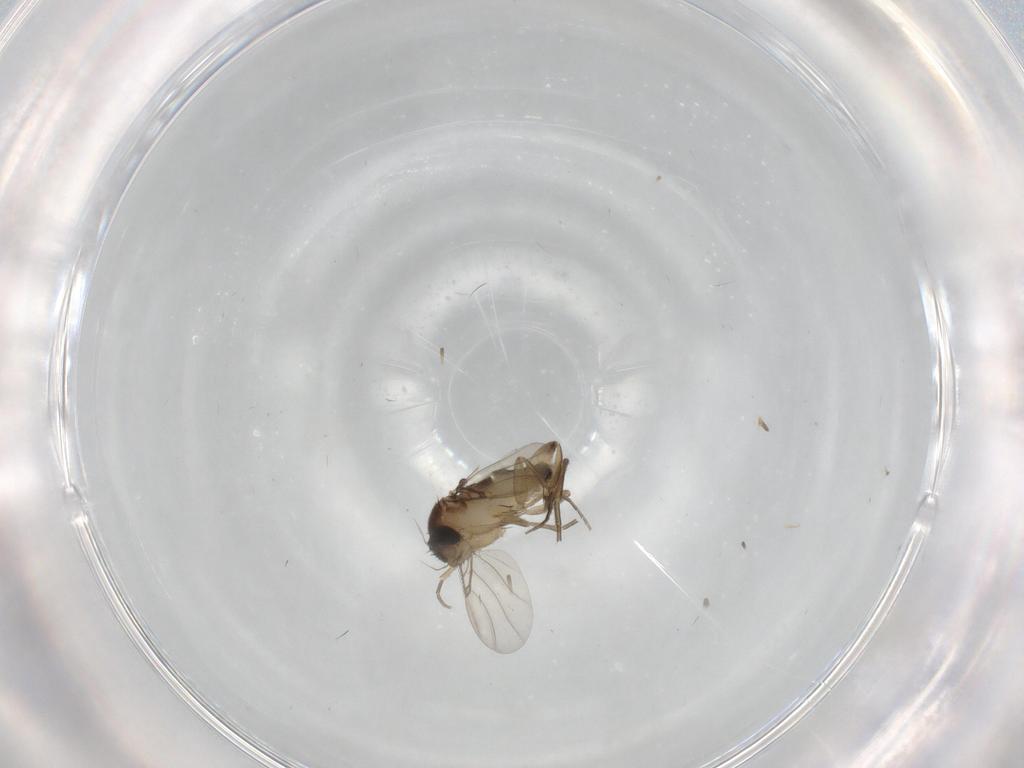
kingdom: Animalia
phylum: Arthropoda
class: Insecta
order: Diptera
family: Phoridae
